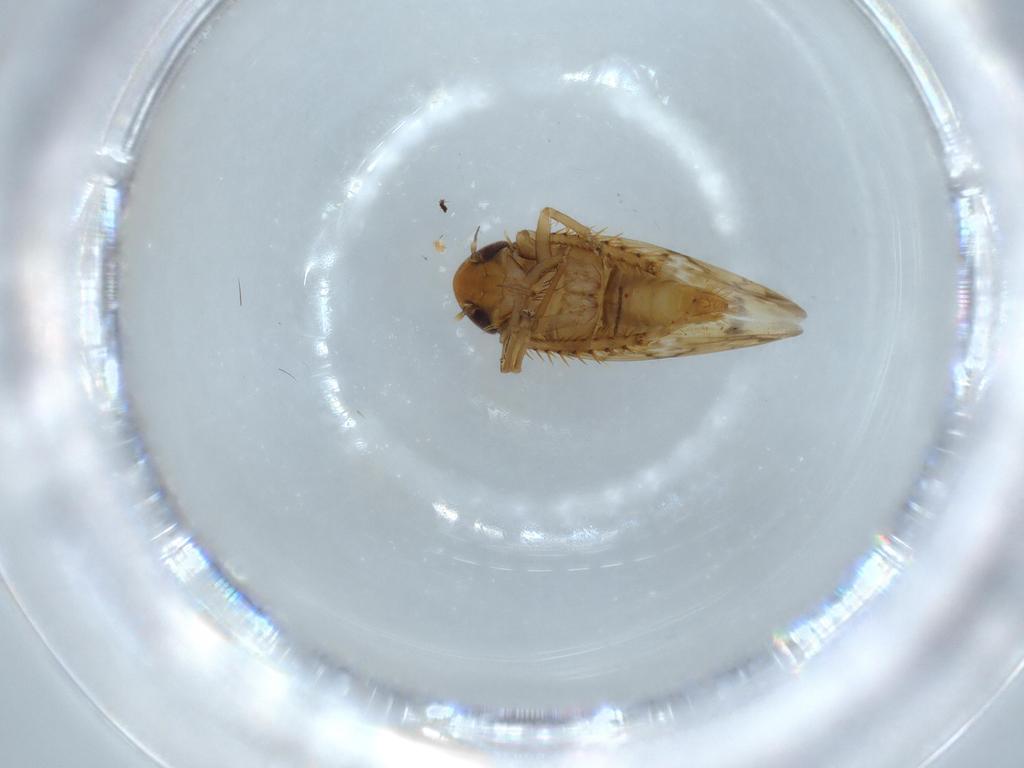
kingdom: Animalia
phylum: Arthropoda
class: Insecta
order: Hemiptera
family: Cicadellidae
